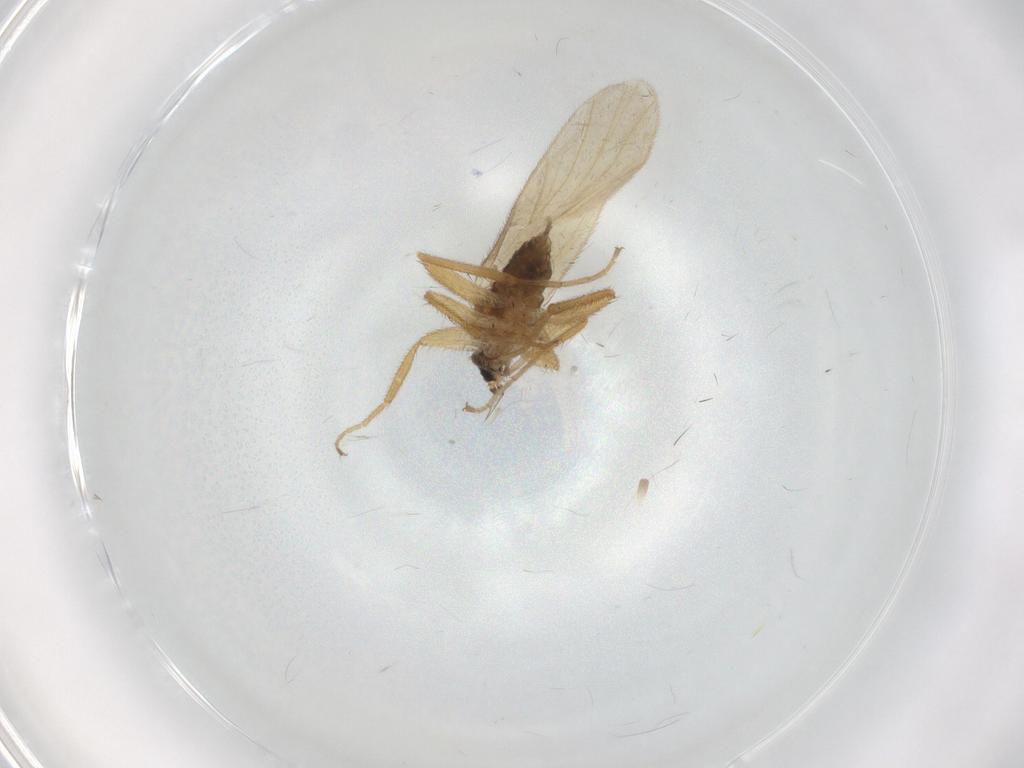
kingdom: Animalia
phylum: Arthropoda
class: Insecta
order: Diptera
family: Hybotidae
